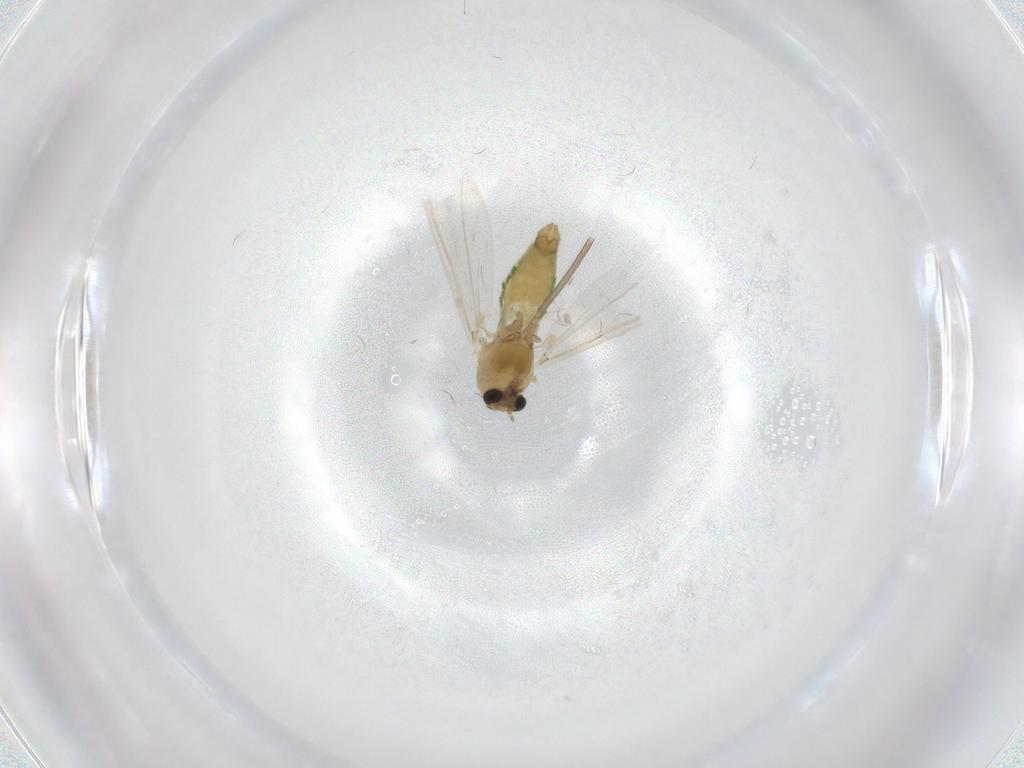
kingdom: Animalia
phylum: Arthropoda
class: Insecta
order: Diptera
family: Chironomidae
